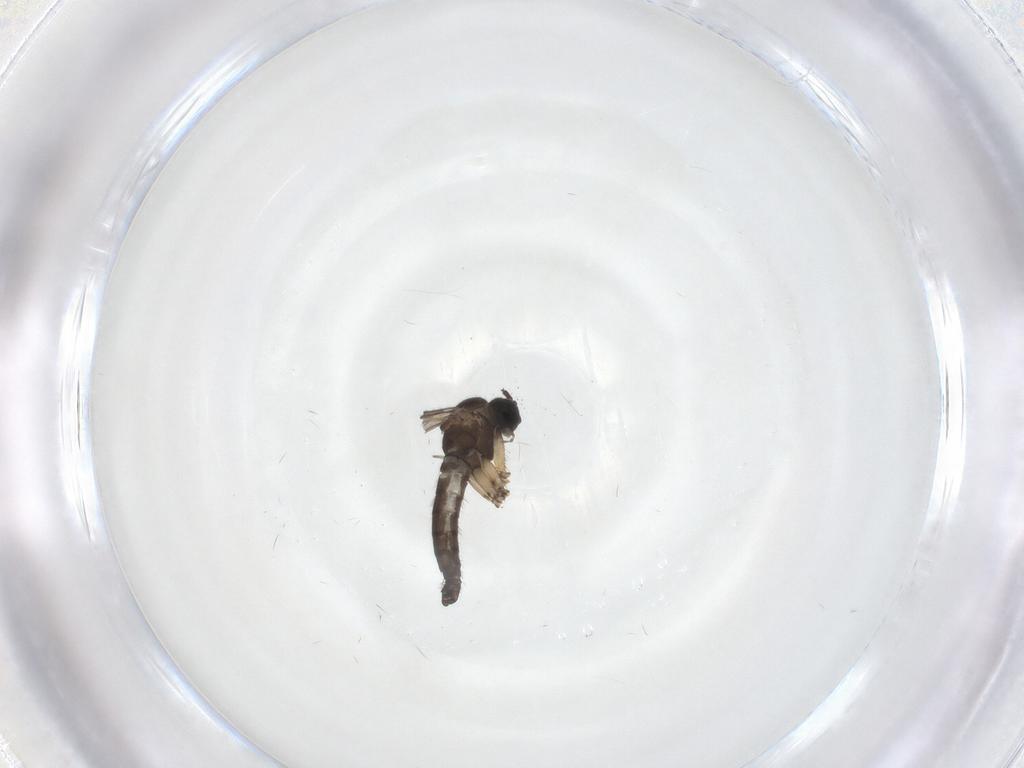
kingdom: Animalia
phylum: Arthropoda
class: Insecta
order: Diptera
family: Sciaridae
